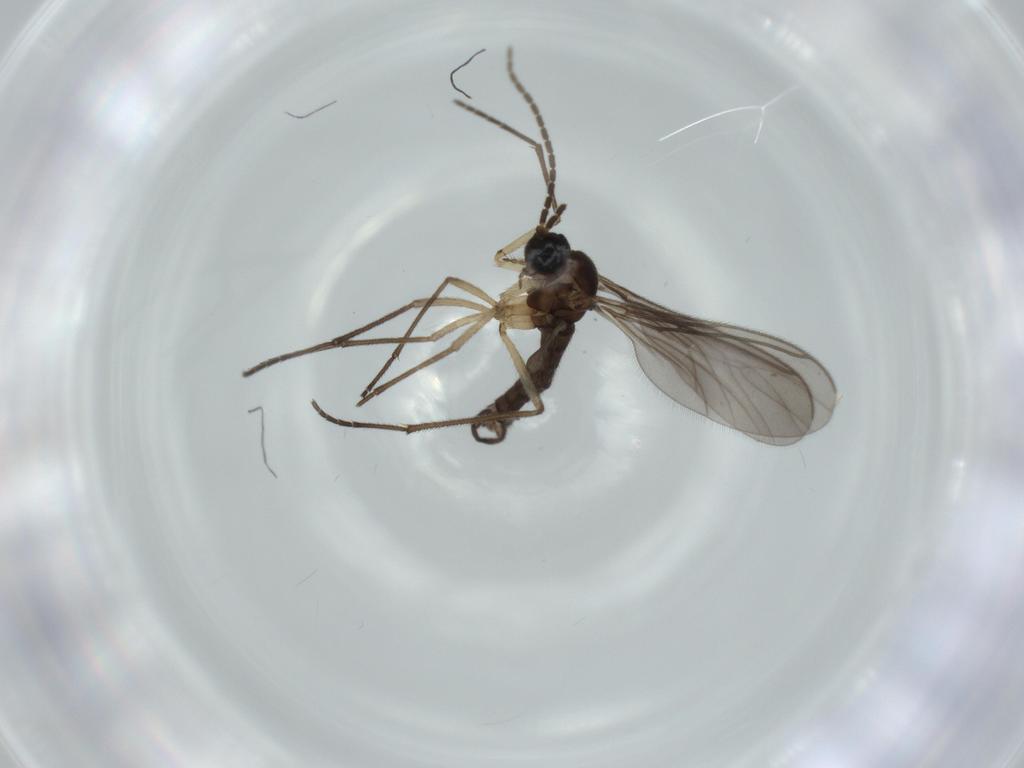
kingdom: Animalia
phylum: Arthropoda
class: Insecta
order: Diptera
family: Sciaridae
